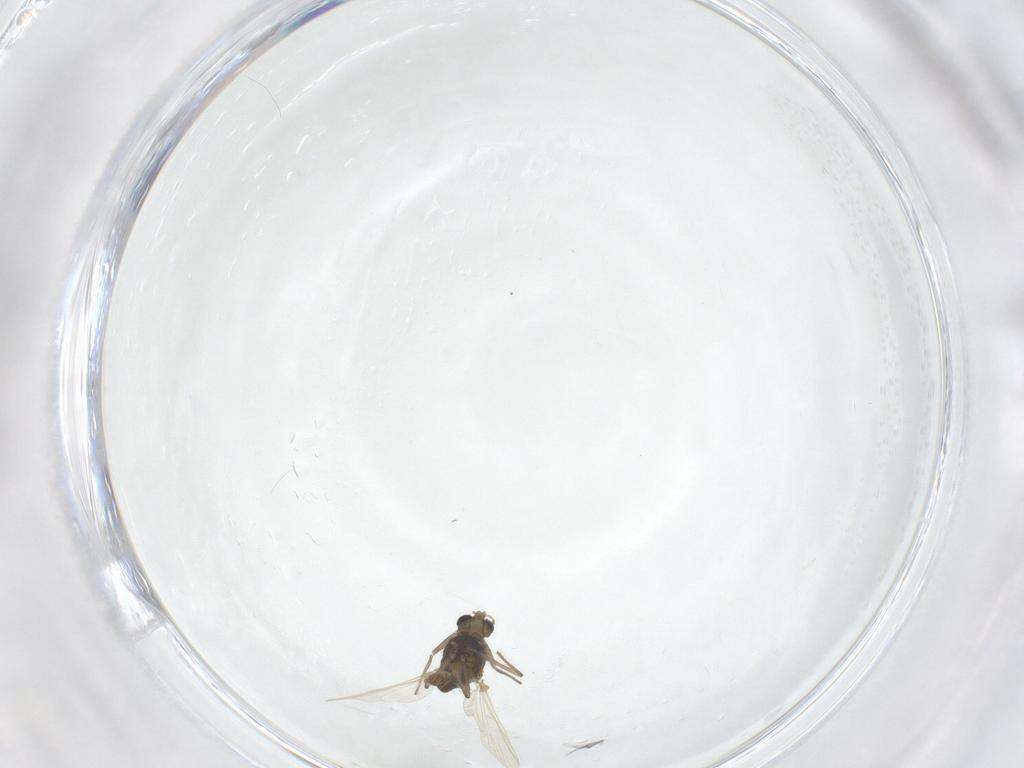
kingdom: Animalia
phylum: Arthropoda
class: Insecta
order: Diptera
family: Chironomidae
